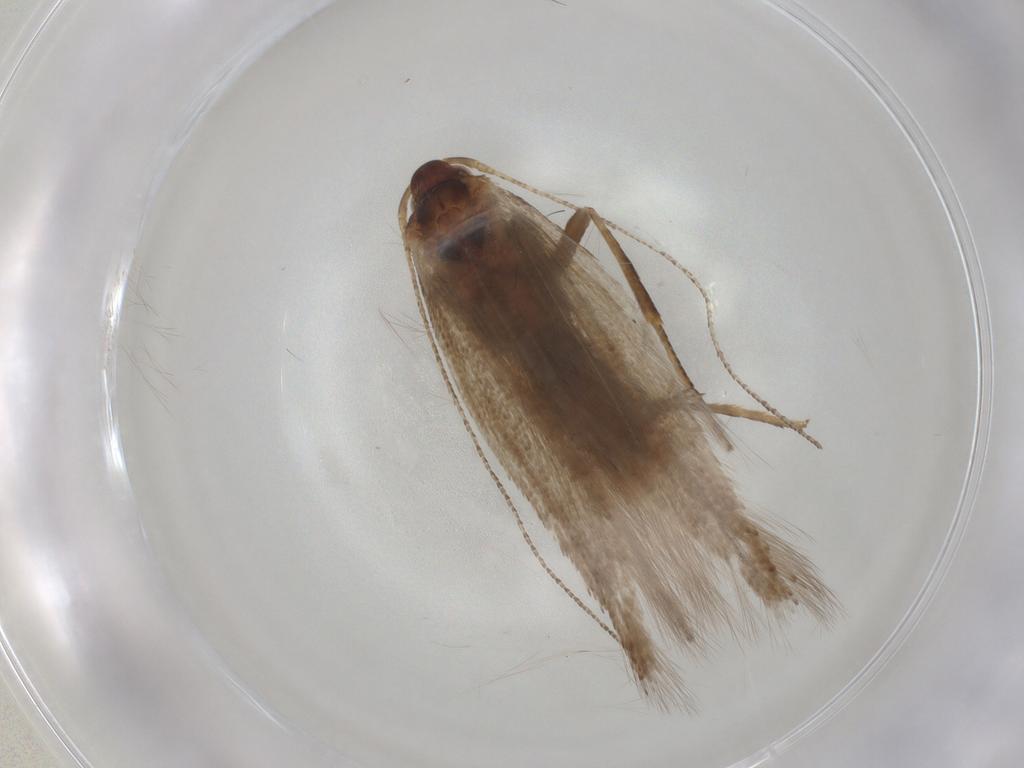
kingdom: Animalia
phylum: Arthropoda
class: Insecta
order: Lepidoptera
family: Erebidae
